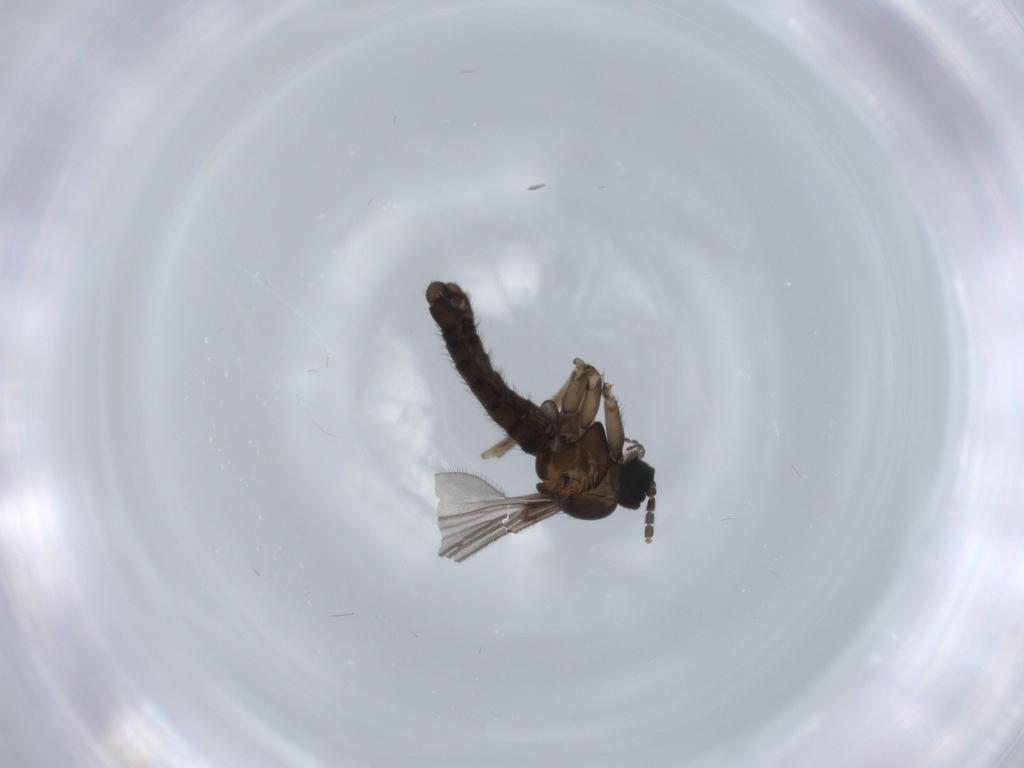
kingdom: Animalia
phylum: Arthropoda
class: Insecta
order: Diptera
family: Sciaridae
